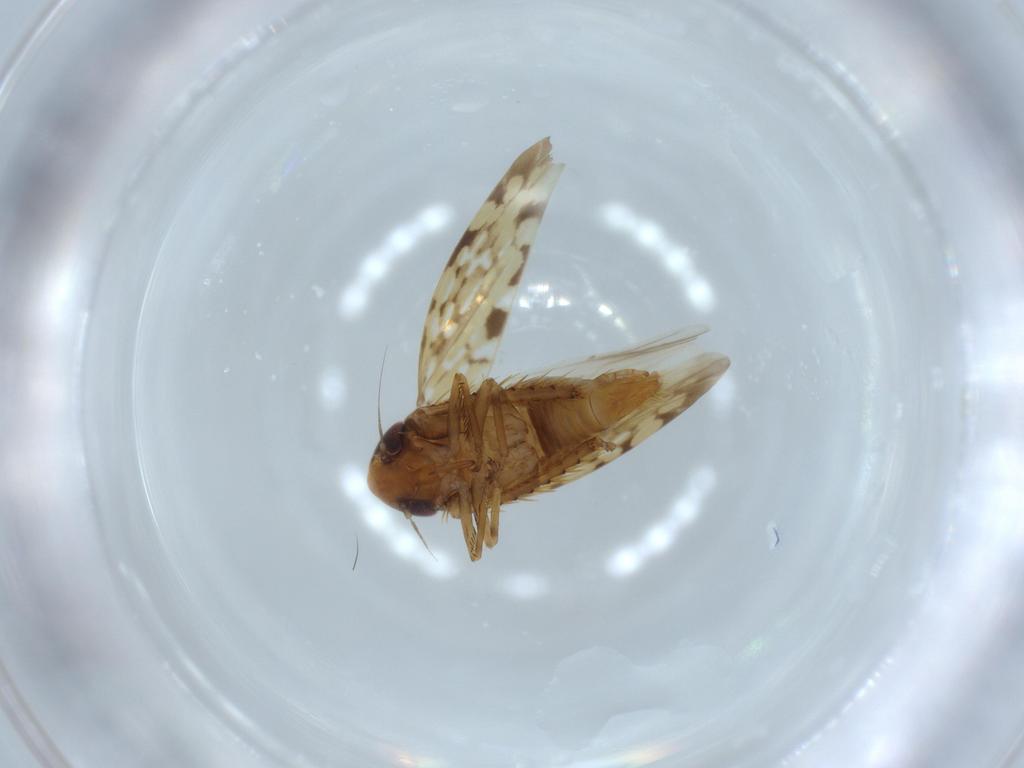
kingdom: Animalia
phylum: Arthropoda
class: Insecta
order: Hemiptera
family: Cicadellidae
